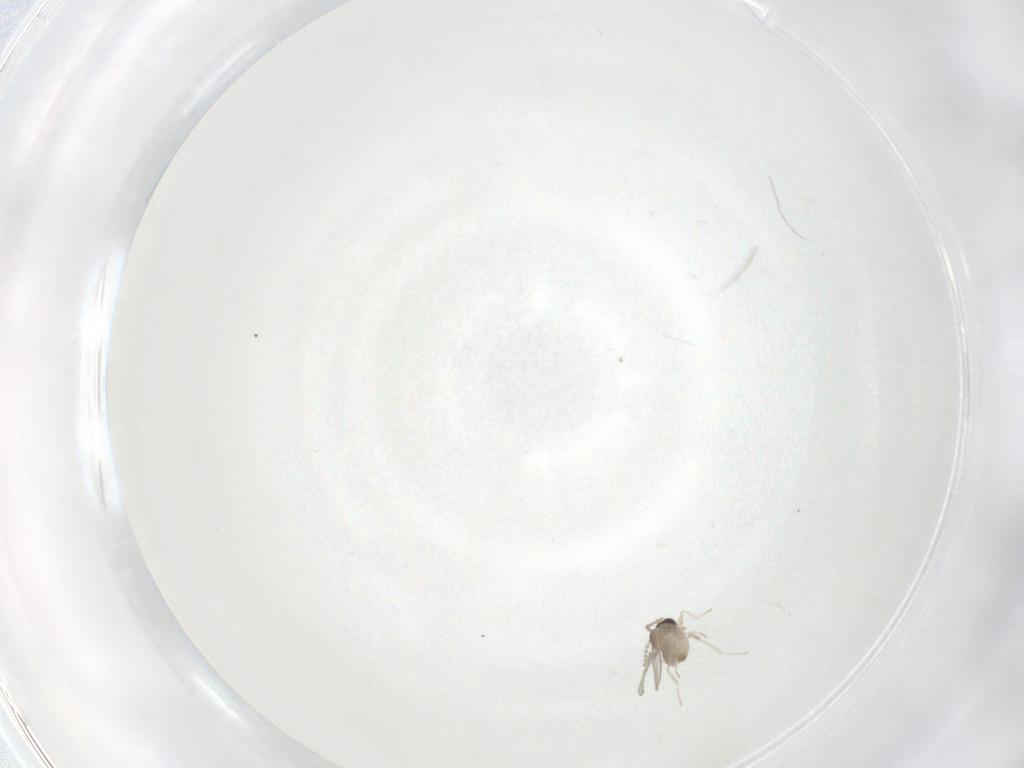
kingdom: Animalia
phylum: Arthropoda
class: Insecta
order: Diptera
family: Cecidomyiidae
